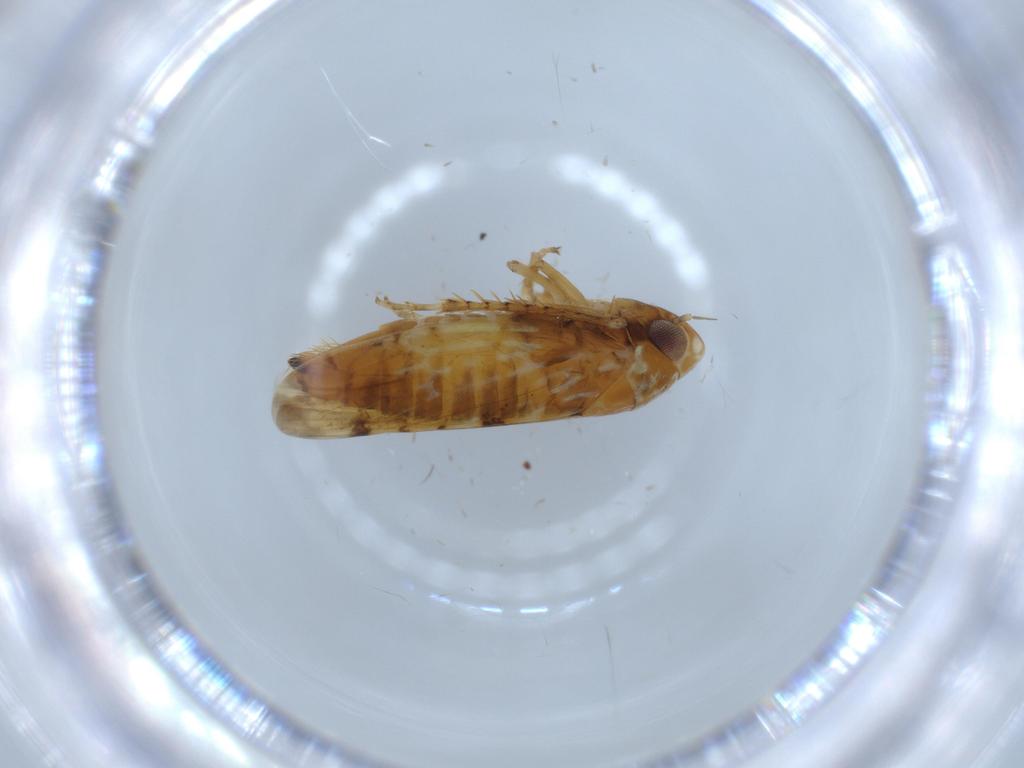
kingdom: Animalia
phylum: Arthropoda
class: Insecta
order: Hemiptera
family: Cicadellidae
